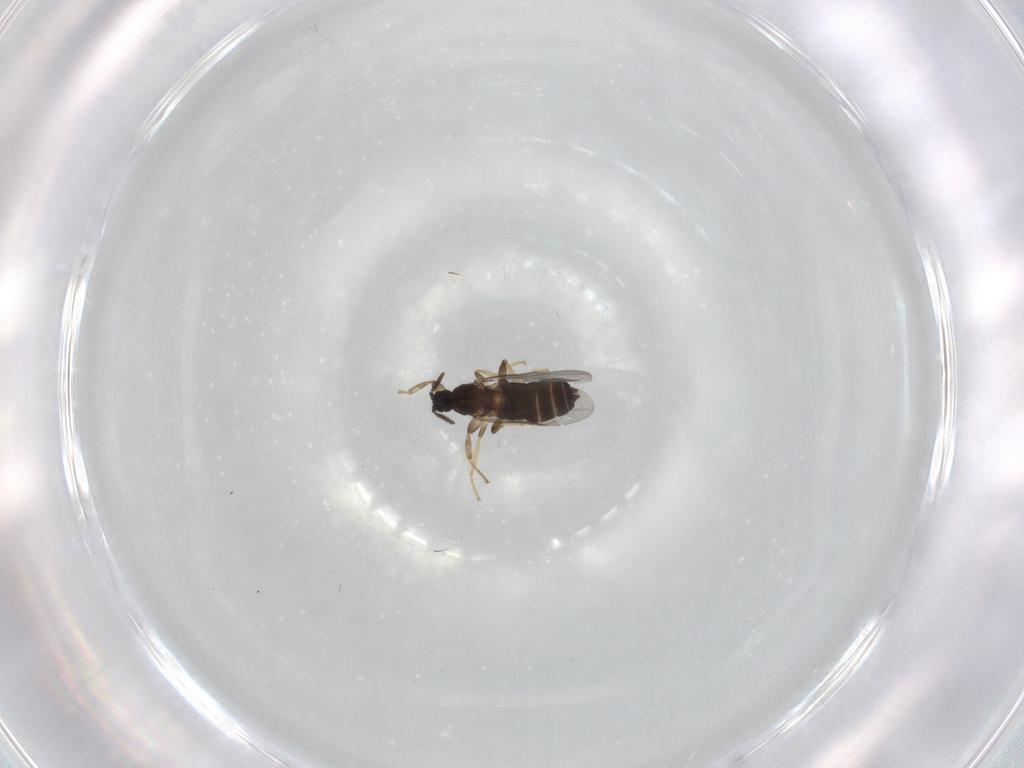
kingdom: Animalia
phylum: Arthropoda
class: Insecta
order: Diptera
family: Scatopsidae
